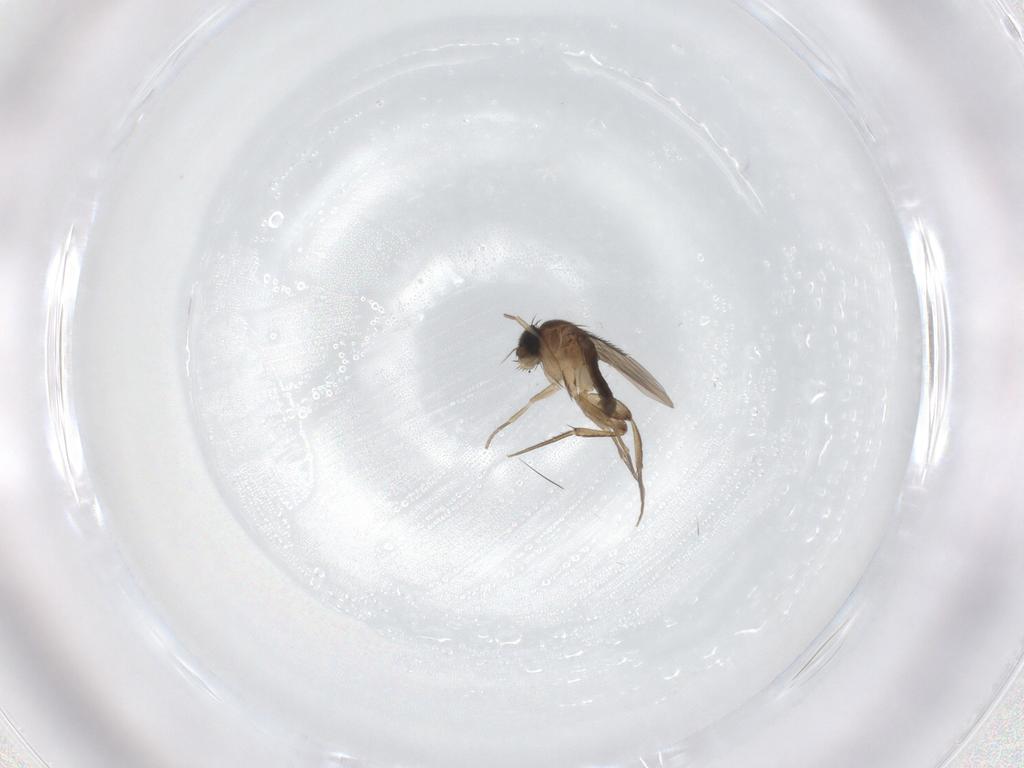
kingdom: Animalia
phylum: Arthropoda
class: Insecta
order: Diptera
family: Phoridae
